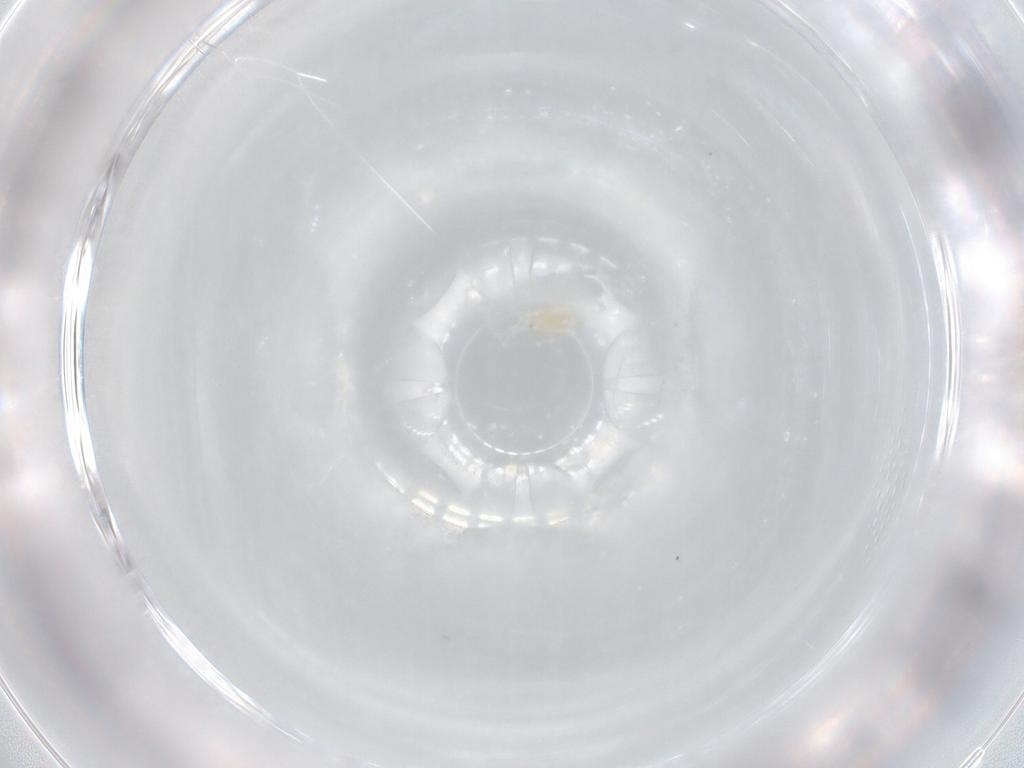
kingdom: Animalia
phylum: Arthropoda
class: Arachnida
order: Trombidiformes
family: Eupodidae
